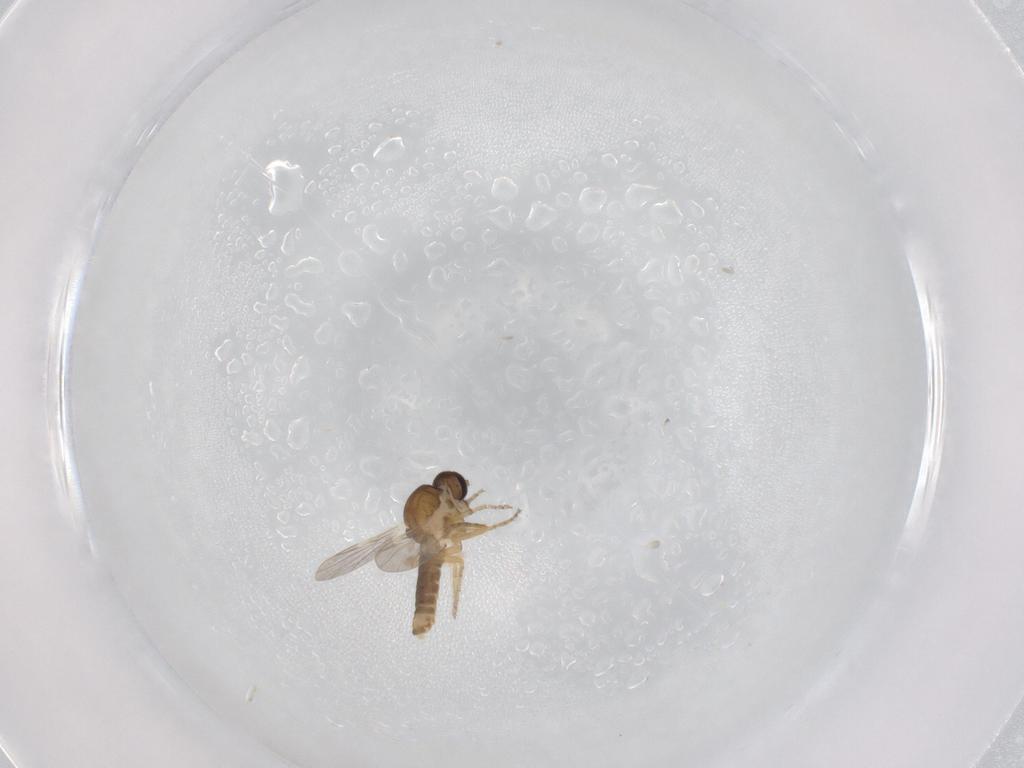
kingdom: Animalia
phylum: Arthropoda
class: Insecta
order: Diptera
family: Ceratopogonidae
